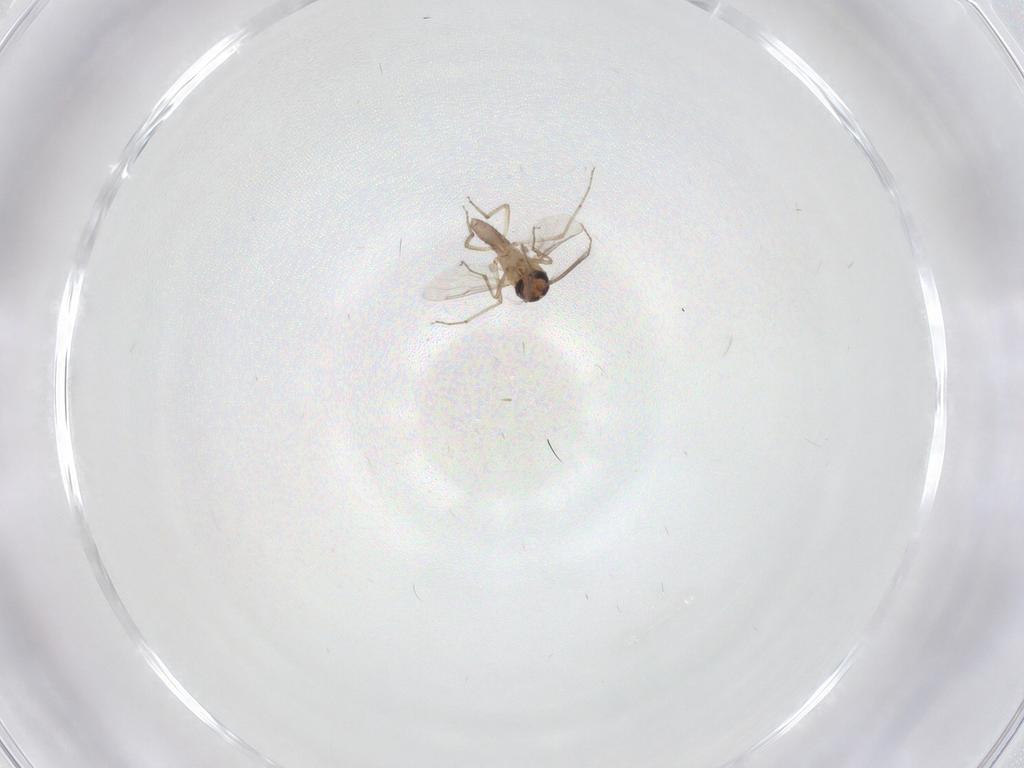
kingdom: Animalia
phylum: Arthropoda
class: Insecta
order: Diptera
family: Sciaridae
